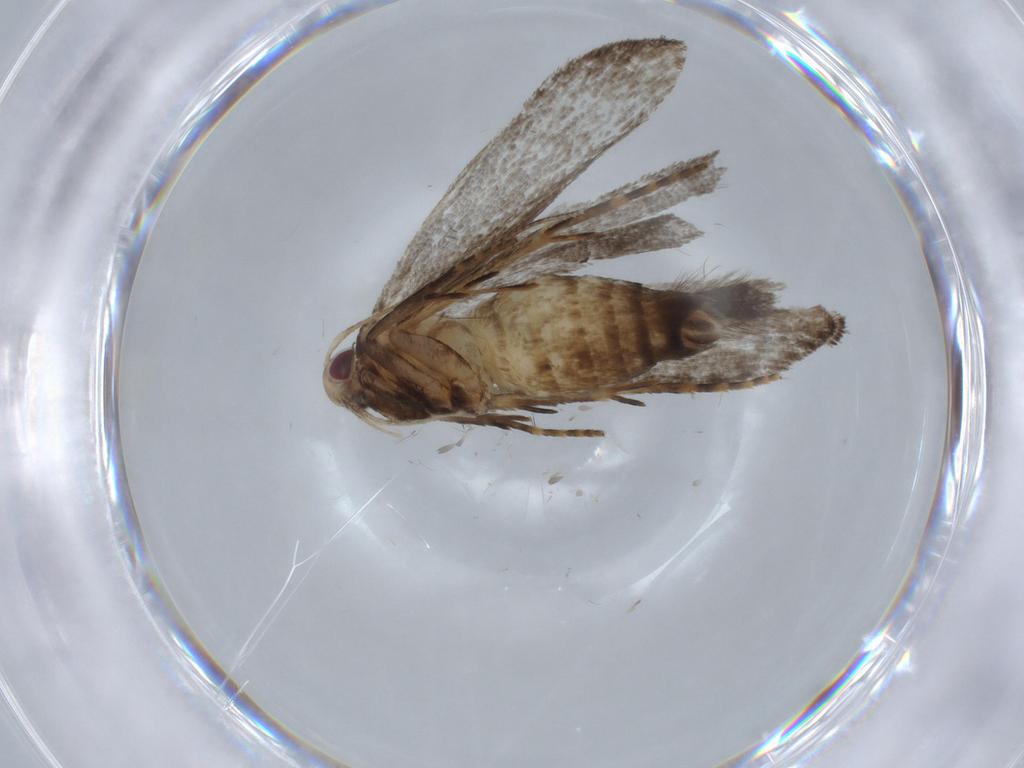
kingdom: Animalia
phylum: Arthropoda
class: Insecta
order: Lepidoptera
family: Gelechiidae
